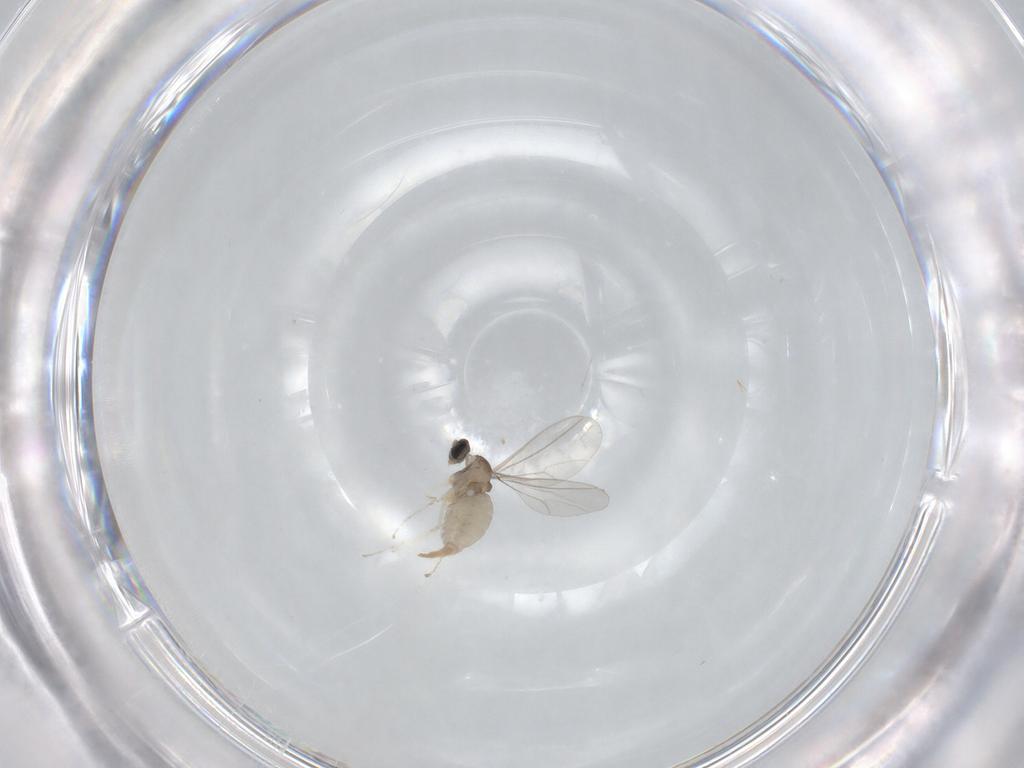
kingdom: Animalia
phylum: Arthropoda
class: Insecta
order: Diptera
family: Cecidomyiidae
